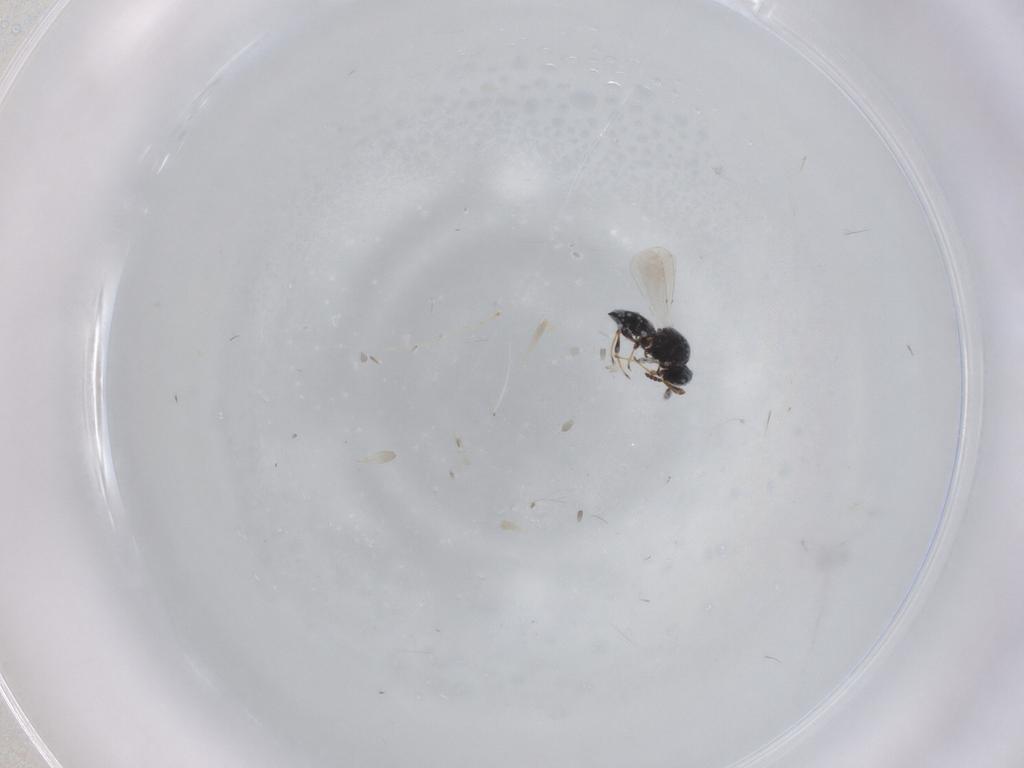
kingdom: Animalia
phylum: Arthropoda
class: Insecta
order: Hymenoptera
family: Platygastridae
